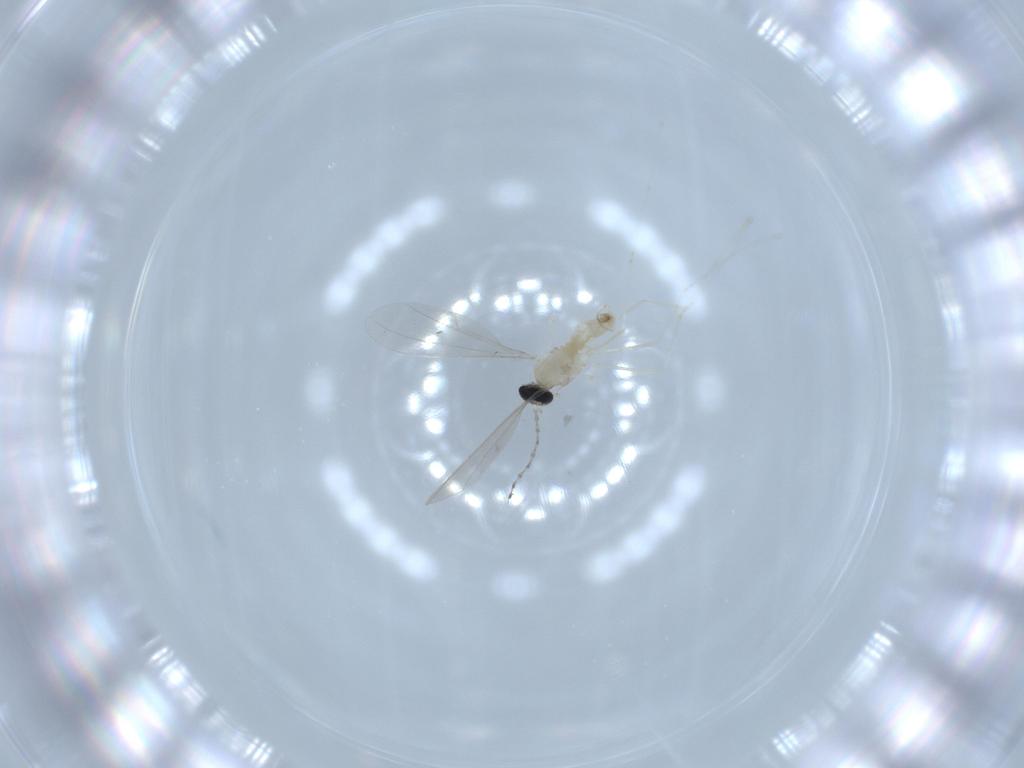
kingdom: Animalia
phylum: Arthropoda
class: Insecta
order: Diptera
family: Cecidomyiidae
